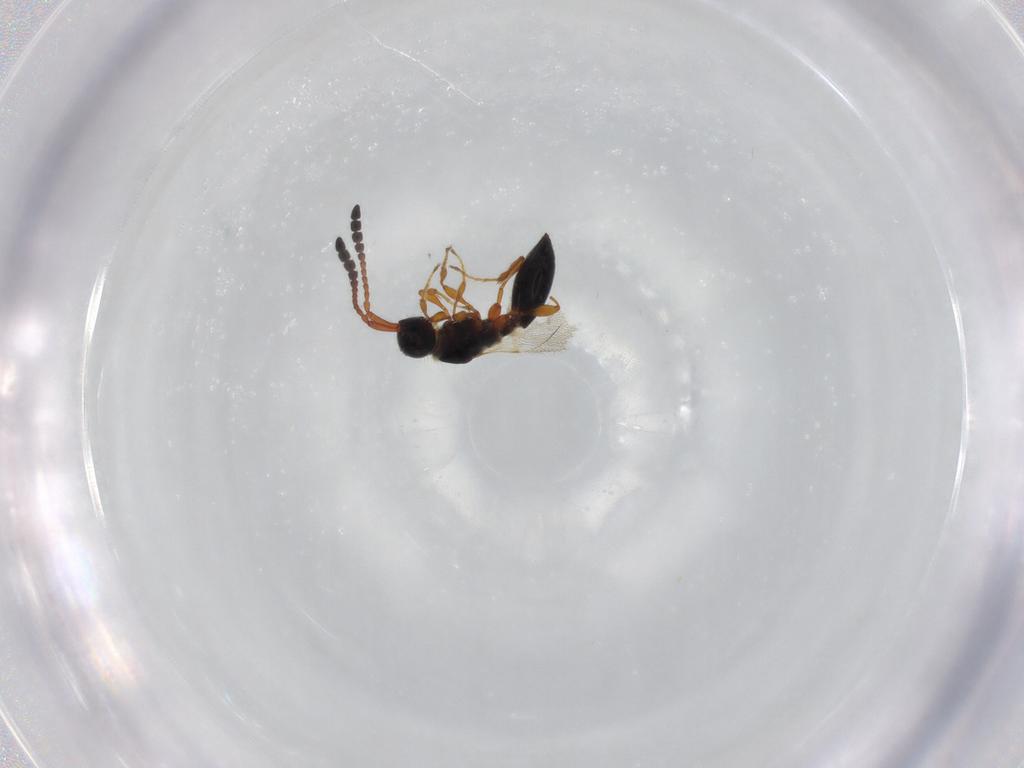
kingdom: Animalia
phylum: Arthropoda
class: Insecta
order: Hymenoptera
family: Diapriidae
